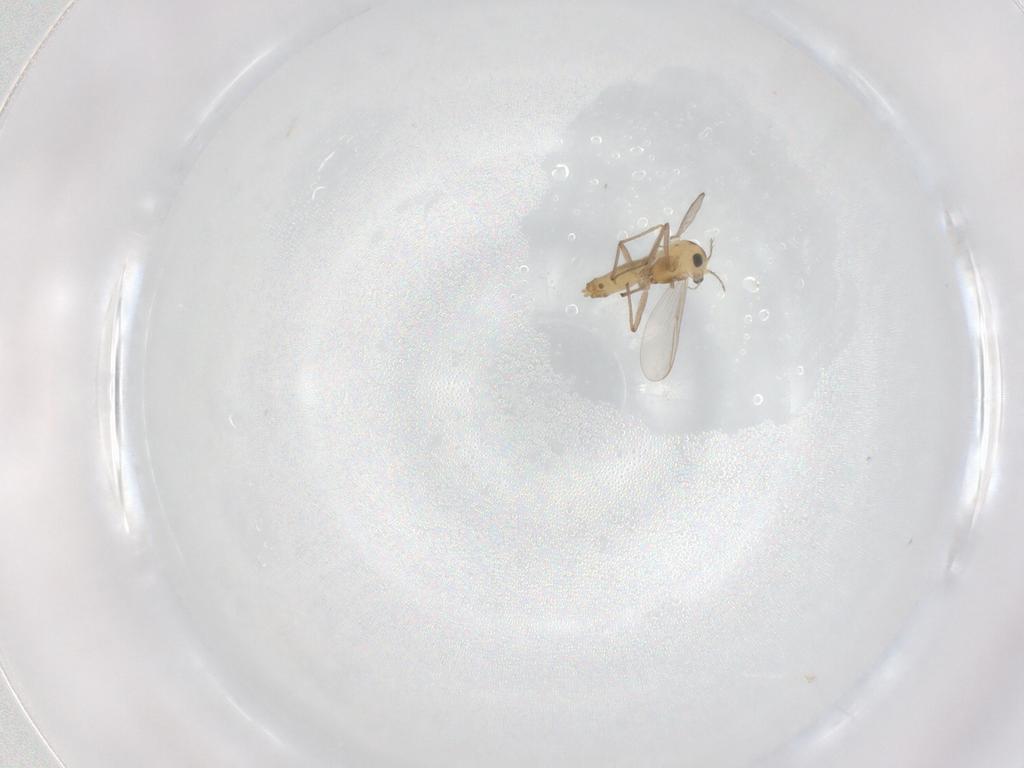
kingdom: Animalia
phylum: Arthropoda
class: Insecta
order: Diptera
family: Chironomidae
